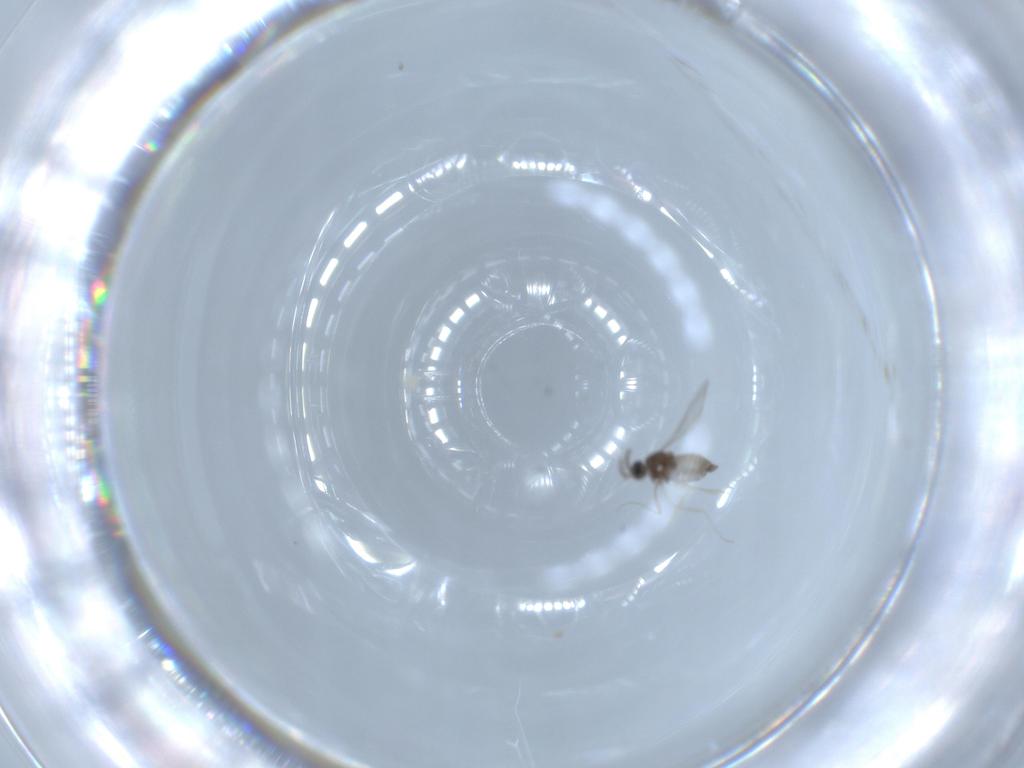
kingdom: Animalia
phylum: Arthropoda
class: Insecta
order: Diptera
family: Cecidomyiidae
